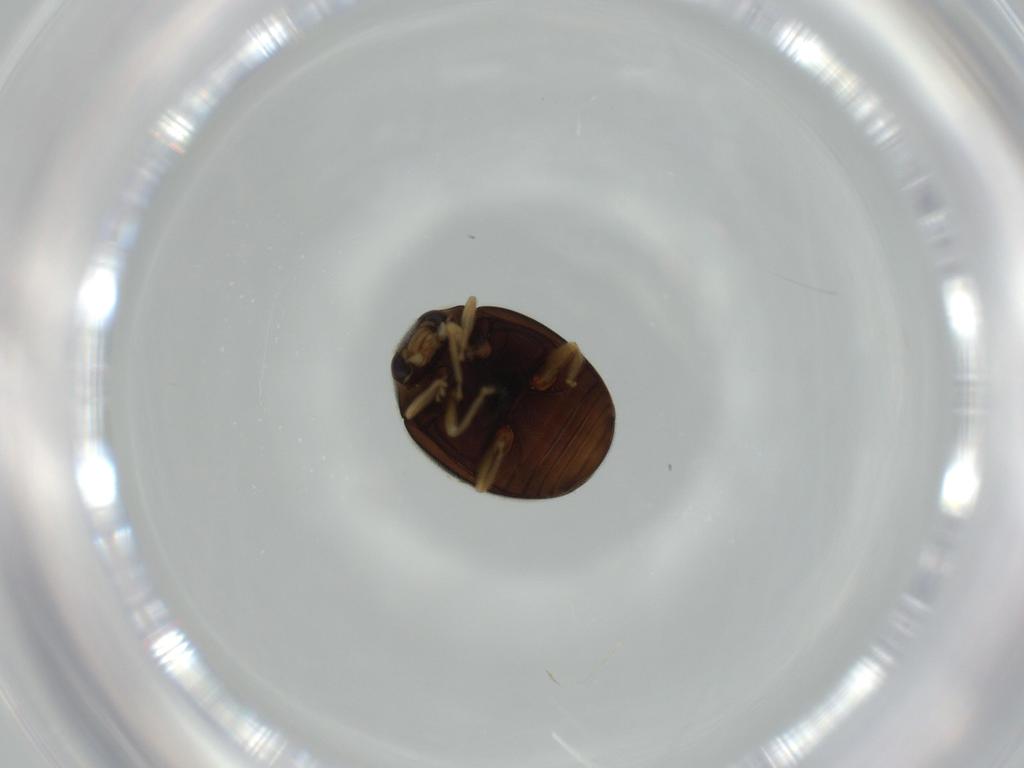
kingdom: Animalia
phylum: Arthropoda
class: Insecta
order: Coleoptera
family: Coccinellidae
